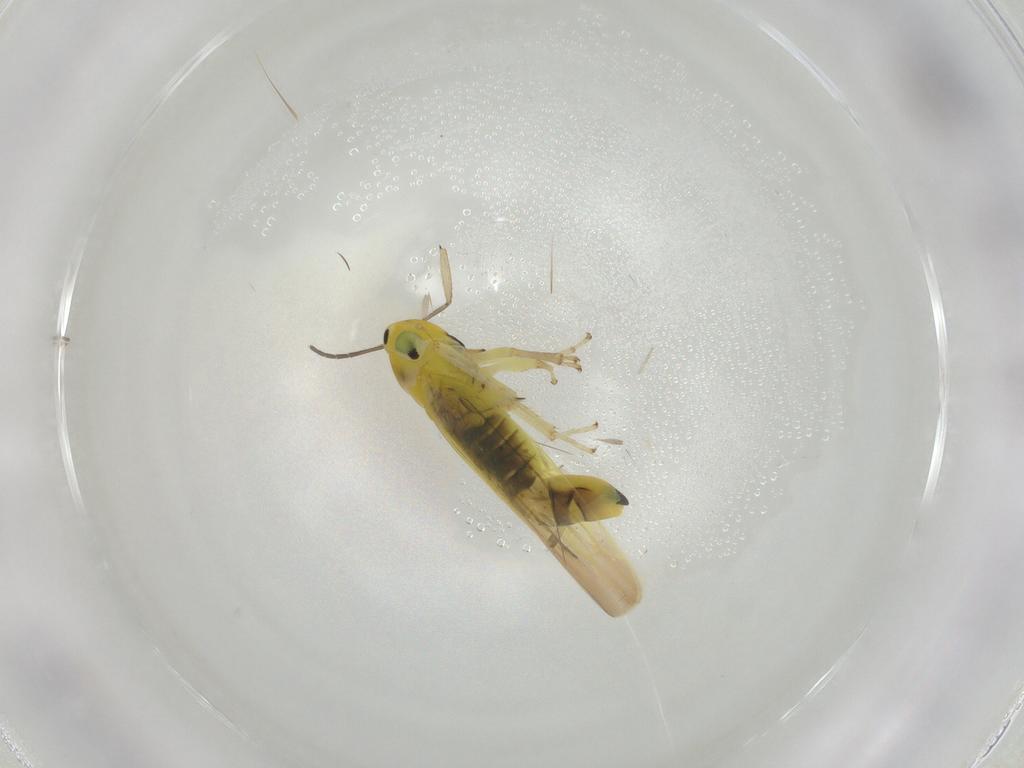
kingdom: Animalia
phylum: Arthropoda
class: Insecta
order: Hemiptera
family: Cicadellidae
